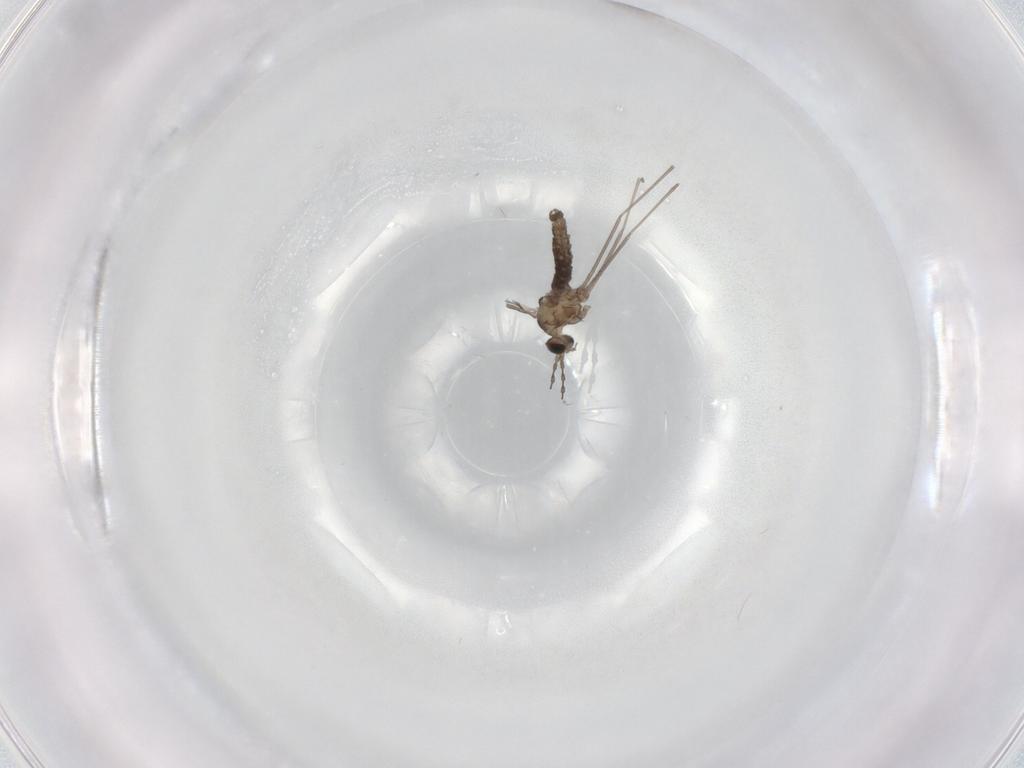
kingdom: Animalia
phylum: Arthropoda
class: Insecta
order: Diptera
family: Cecidomyiidae
